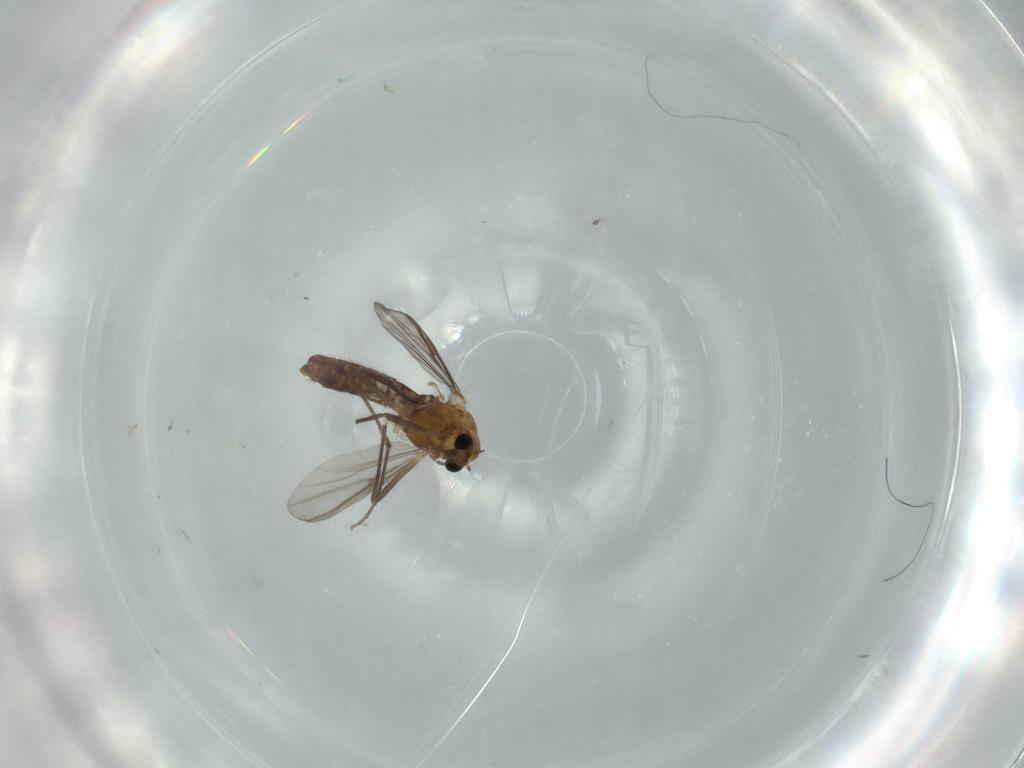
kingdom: Animalia
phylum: Arthropoda
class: Insecta
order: Diptera
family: Chironomidae
